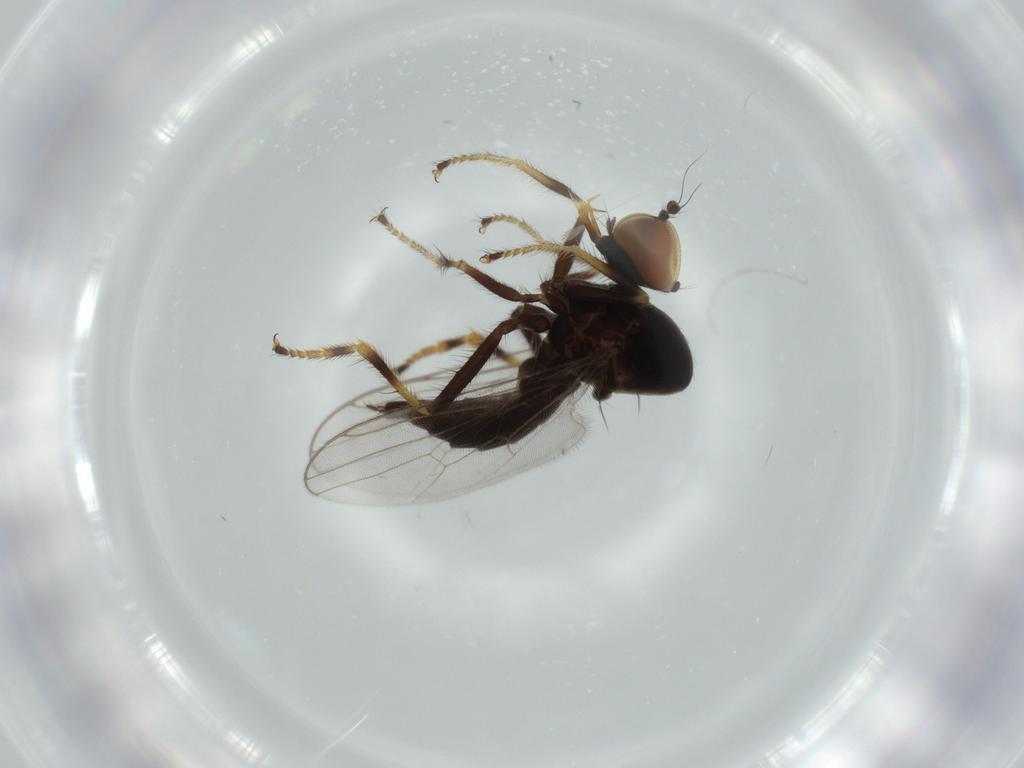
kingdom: Animalia
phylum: Arthropoda
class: Insecta
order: Diptera
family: Hybotidae
